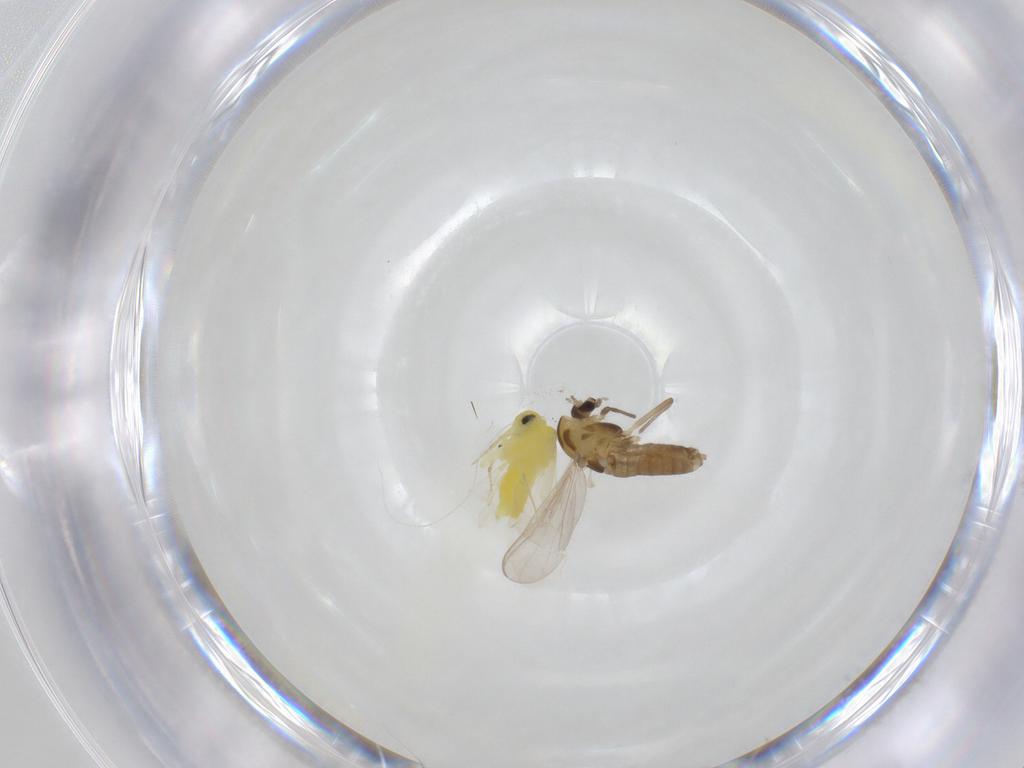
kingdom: Animalia
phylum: Arthropoda
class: Insecta
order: Diptera
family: Chironomidae
